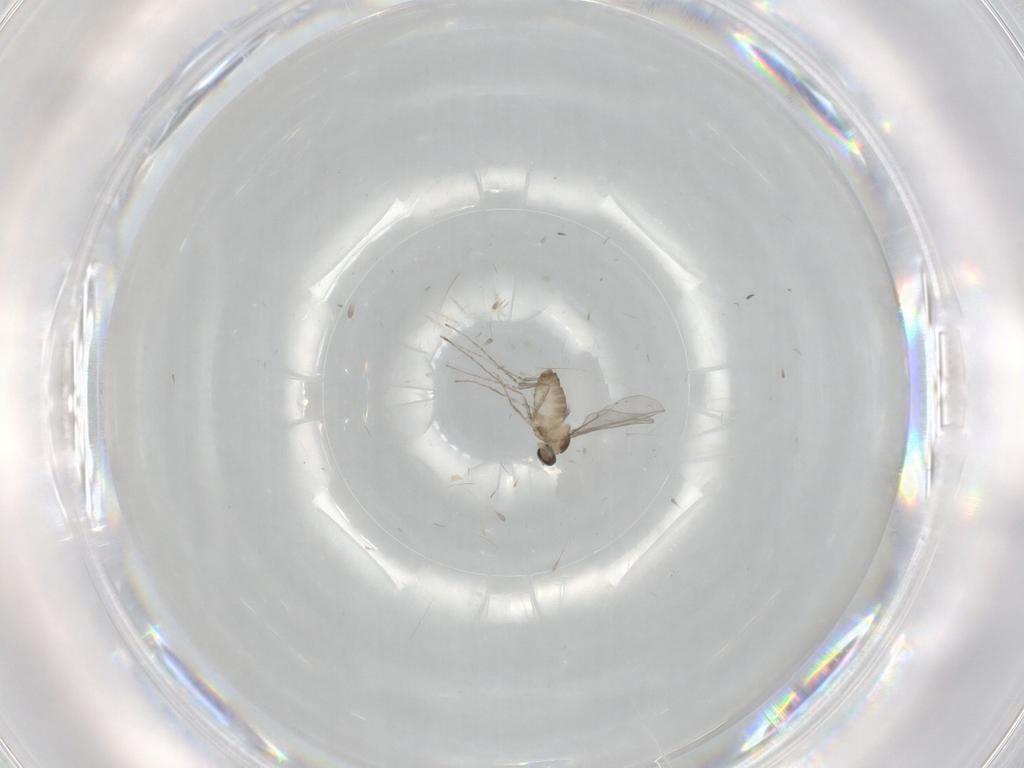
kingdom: Animalia
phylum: Arthropoda
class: Insecta
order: Diptera
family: Cecidomyiidae
